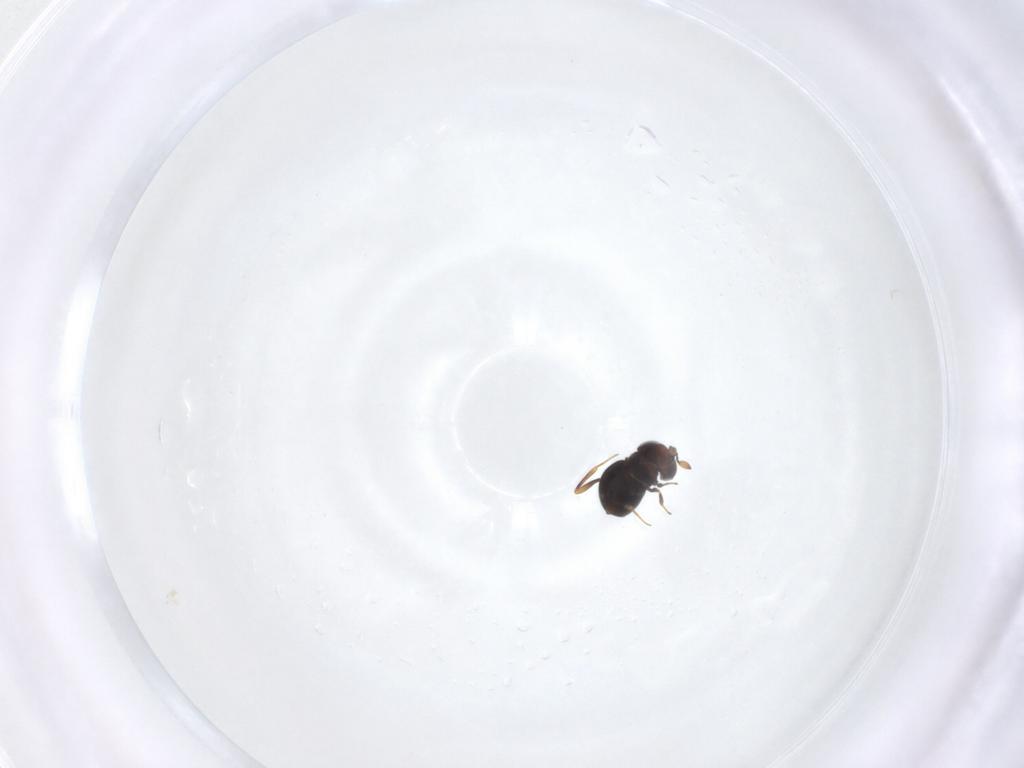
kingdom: Animalia
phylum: Arthropoda
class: Insecta
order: Hymenoptera
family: Scelionidae
